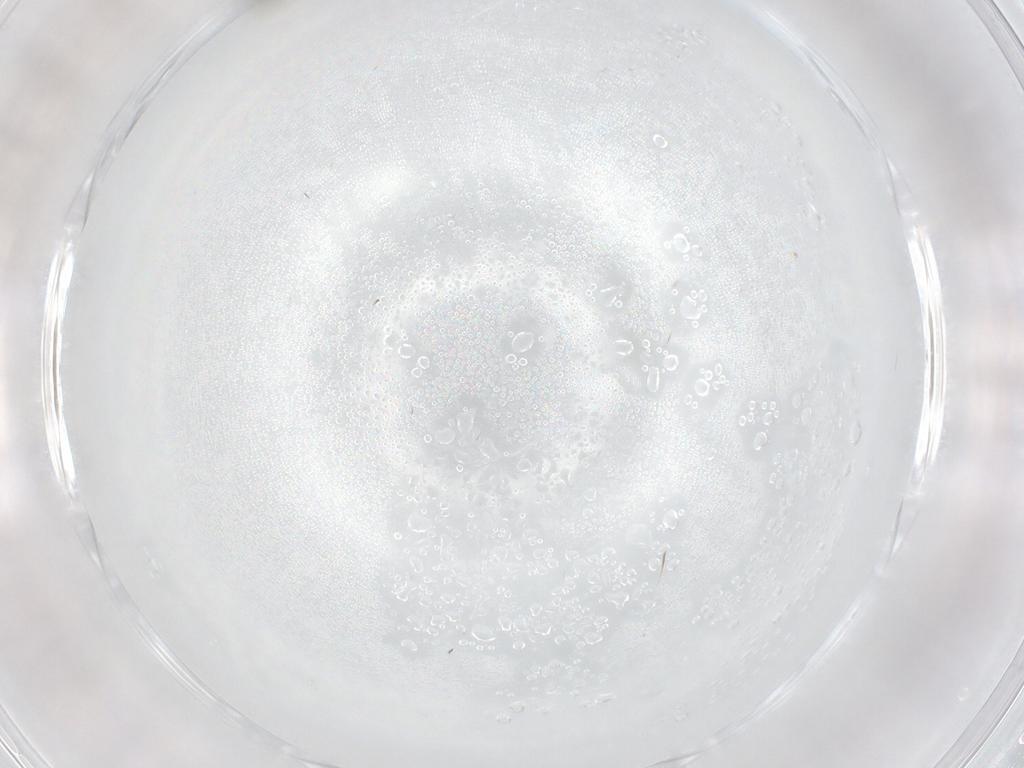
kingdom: Animalia
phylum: Arthropoda
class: Insecta
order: Diptera
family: Cecidomyiidae
